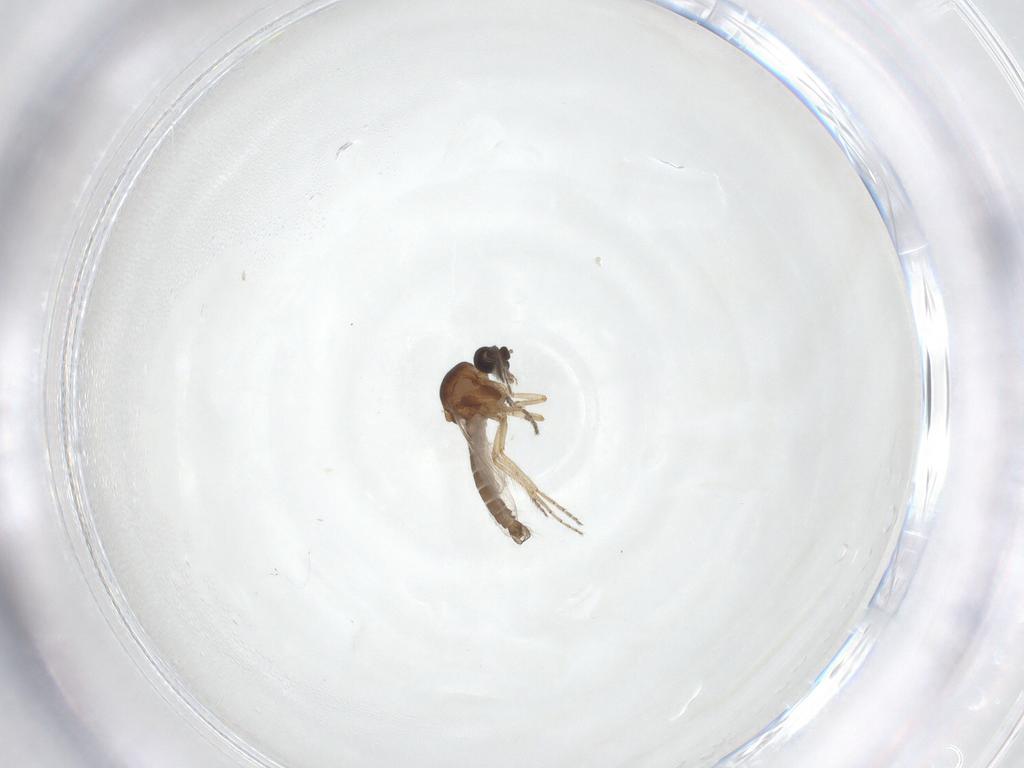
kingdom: Animalia
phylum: Arthropoda
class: Insecta
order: Diptera
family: Ceratopogonidae
